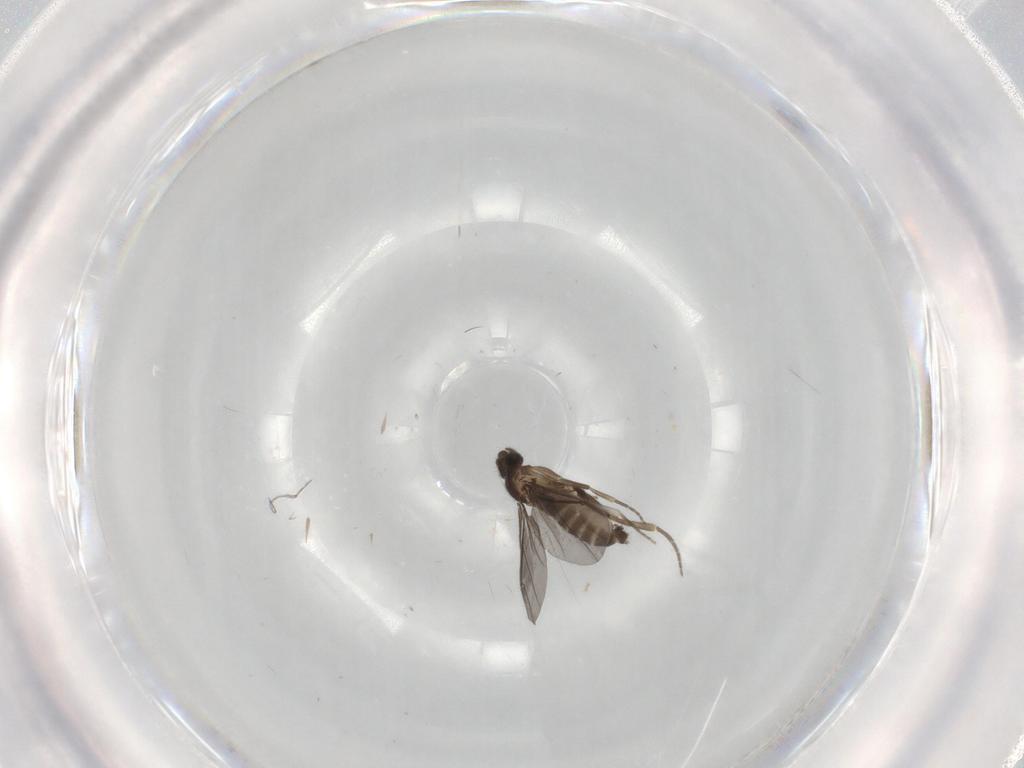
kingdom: Animalia
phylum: Arthropoda
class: Insecta
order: Diptera
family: Phoridae
